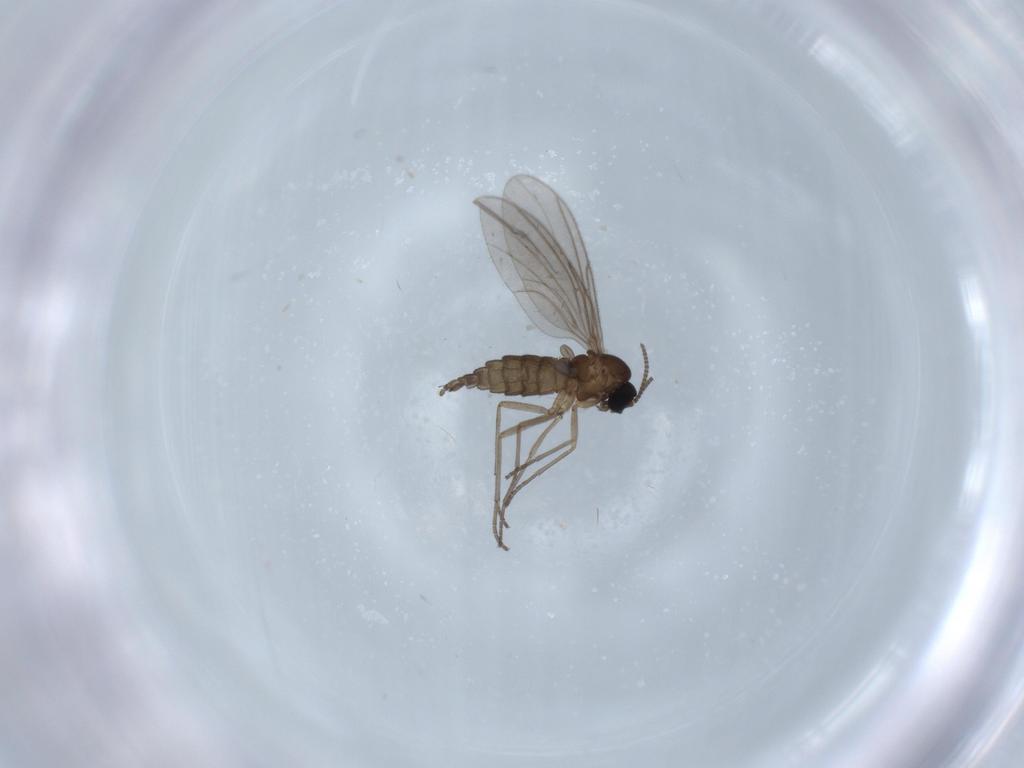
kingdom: Animalia
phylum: Arthropoda
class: Insecta
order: Diptera
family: Sciaridae
